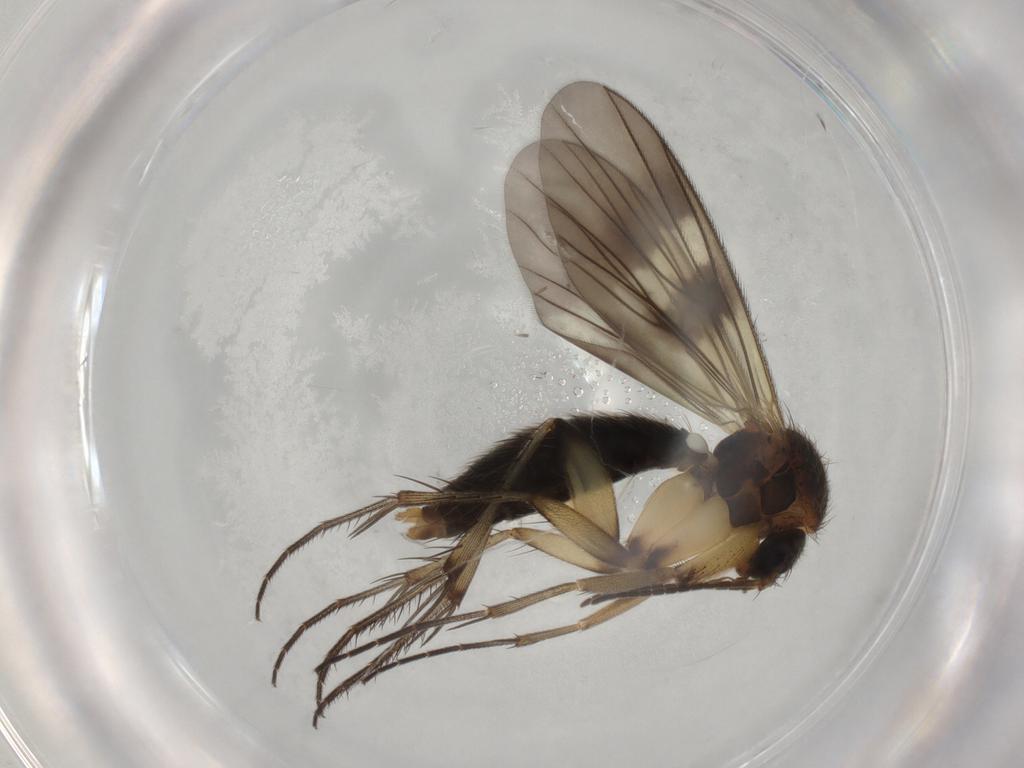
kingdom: Animalia
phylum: Arthropoda
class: Insecta
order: Diptera
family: Mycetophilidae
